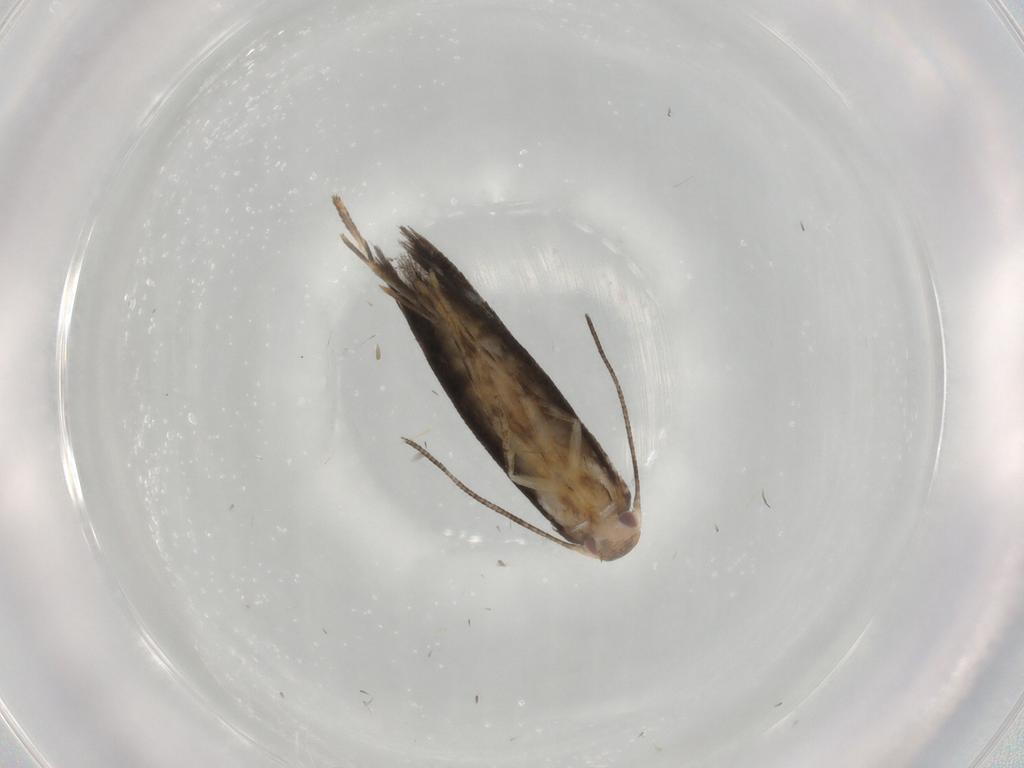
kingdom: Animalia
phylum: Arthropoda
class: Insecta
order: Lepidoptera
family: Momphidae
